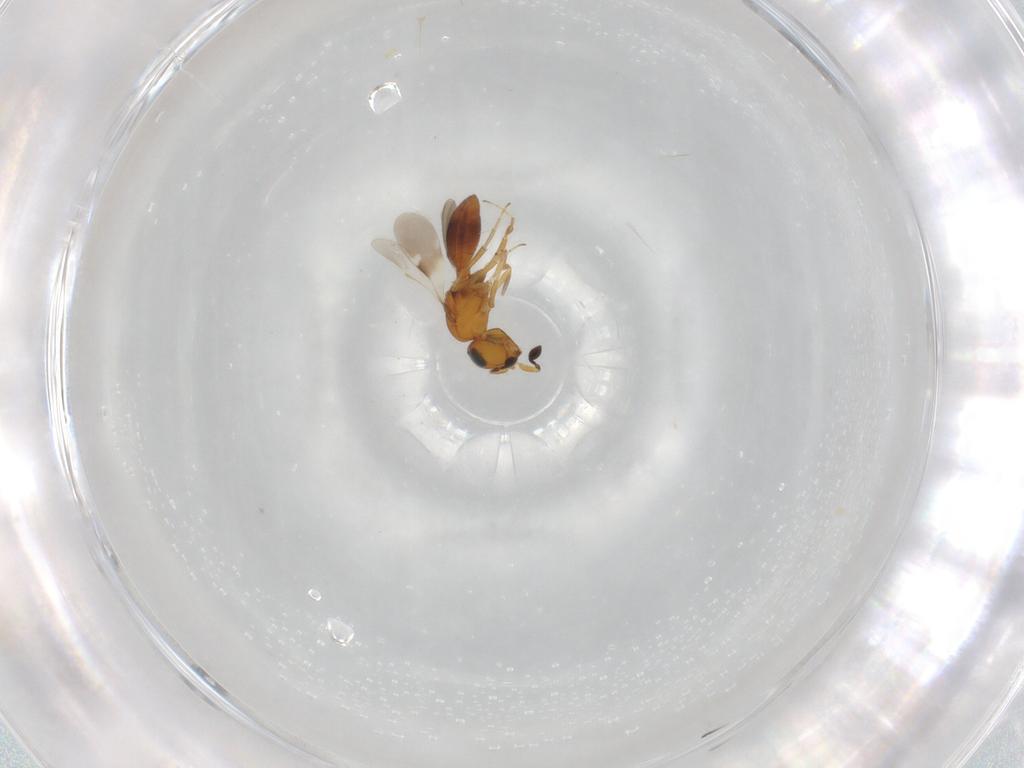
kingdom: Animalia
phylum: Arthropoda
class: Insecta
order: Hymenoptera
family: Scelionidae
